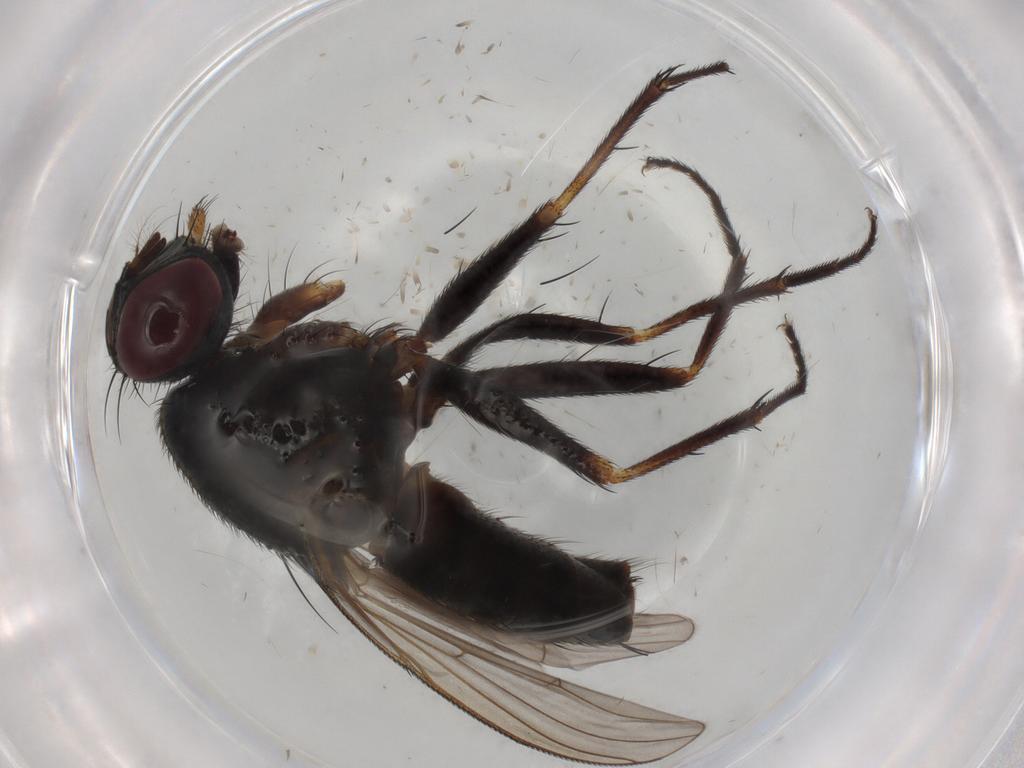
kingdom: Animalia
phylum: Arthropoda
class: Insecta
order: Diptera
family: Muscidae
